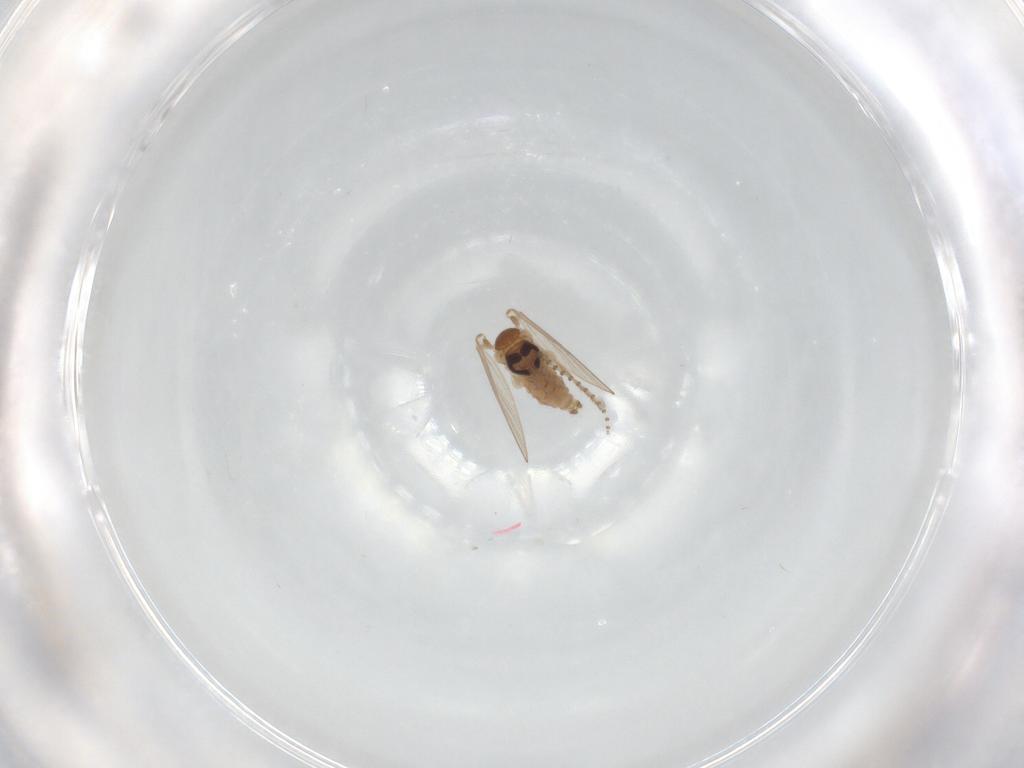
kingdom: Animalia
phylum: Arthropoda
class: Insecta
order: Diptera
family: Psychodidae
